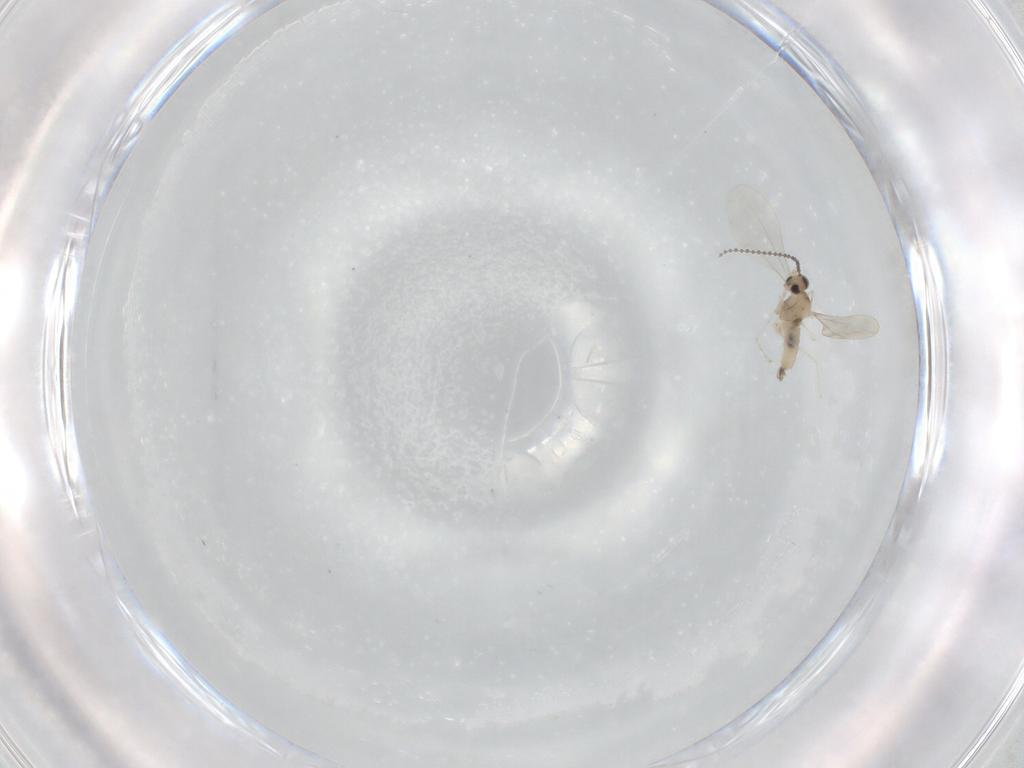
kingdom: Animalia
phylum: Arthropoda
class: Insecta
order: Diptera
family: Cecidomyiidae
